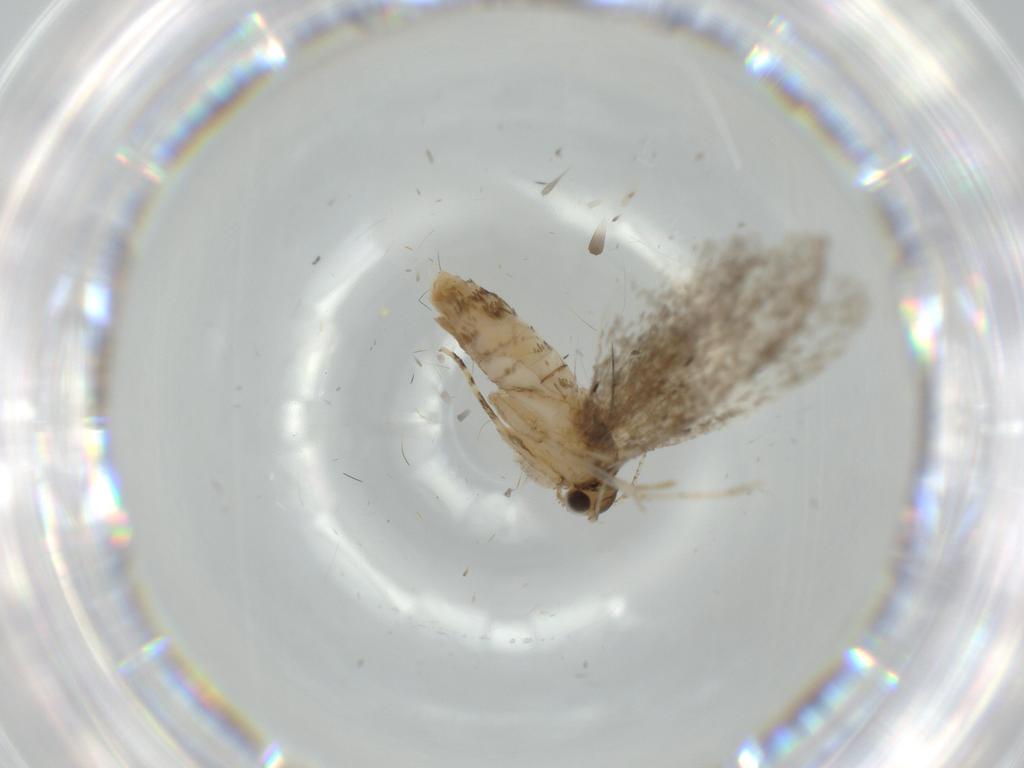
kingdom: Animalia
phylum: Arthropoda
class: Insecta
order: Lepidoptera
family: Tineidae
